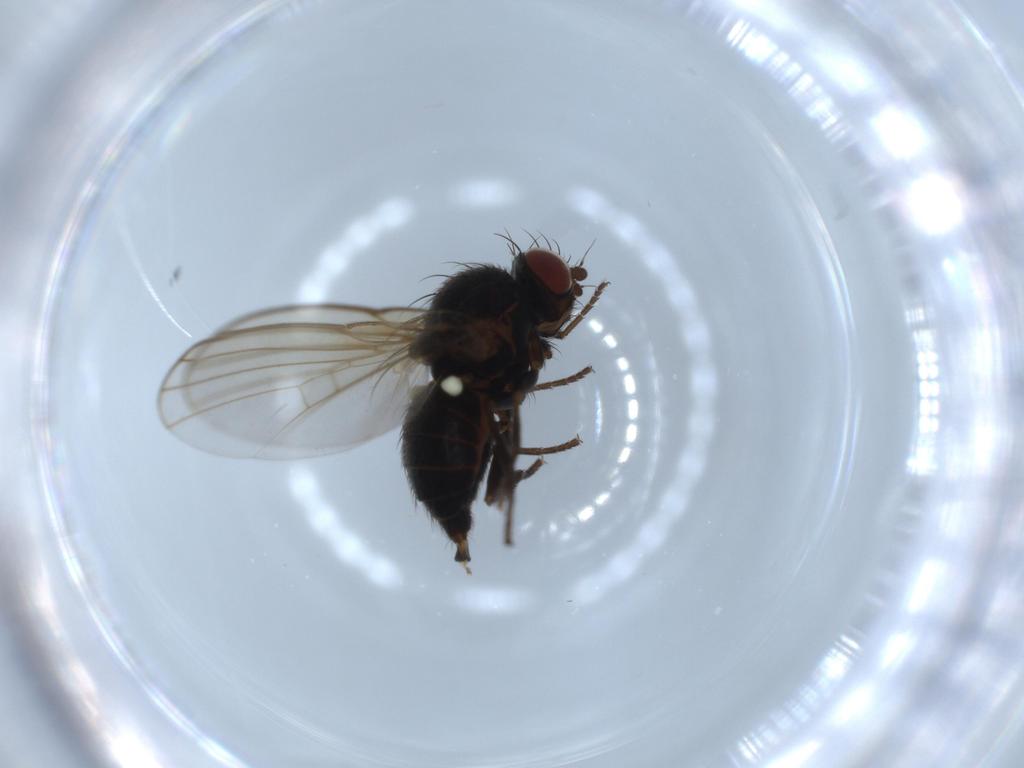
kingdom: Animalia
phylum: Arthropoda
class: Insecta
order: Diptera
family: Agromyzidae
